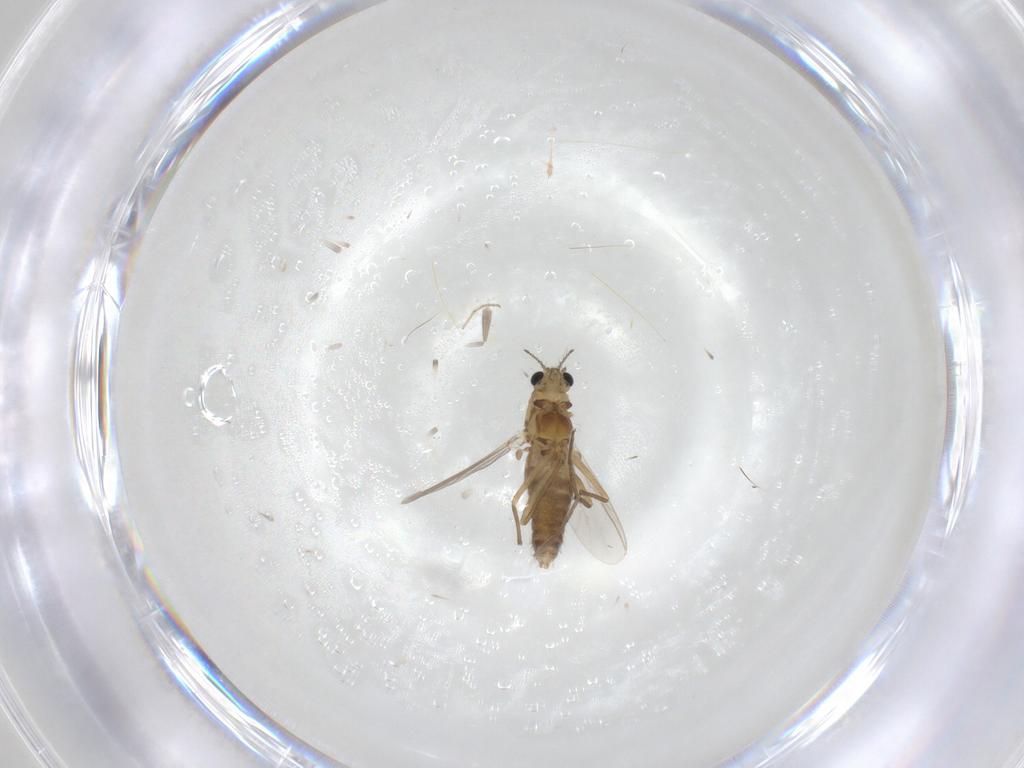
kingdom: Animalia
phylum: Arthropoda
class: Insecta
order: Diptera
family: Chironomidae
